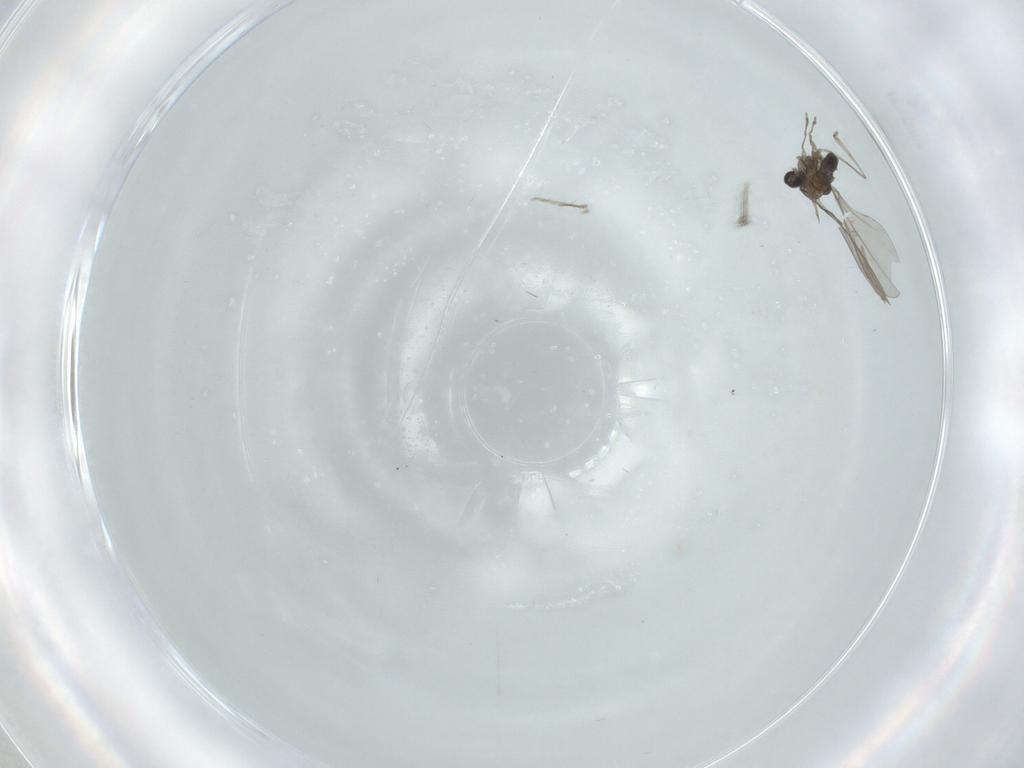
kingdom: Animalia
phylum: Arthropoda
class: Insecta
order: Diptera
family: Cecidomyiidae
